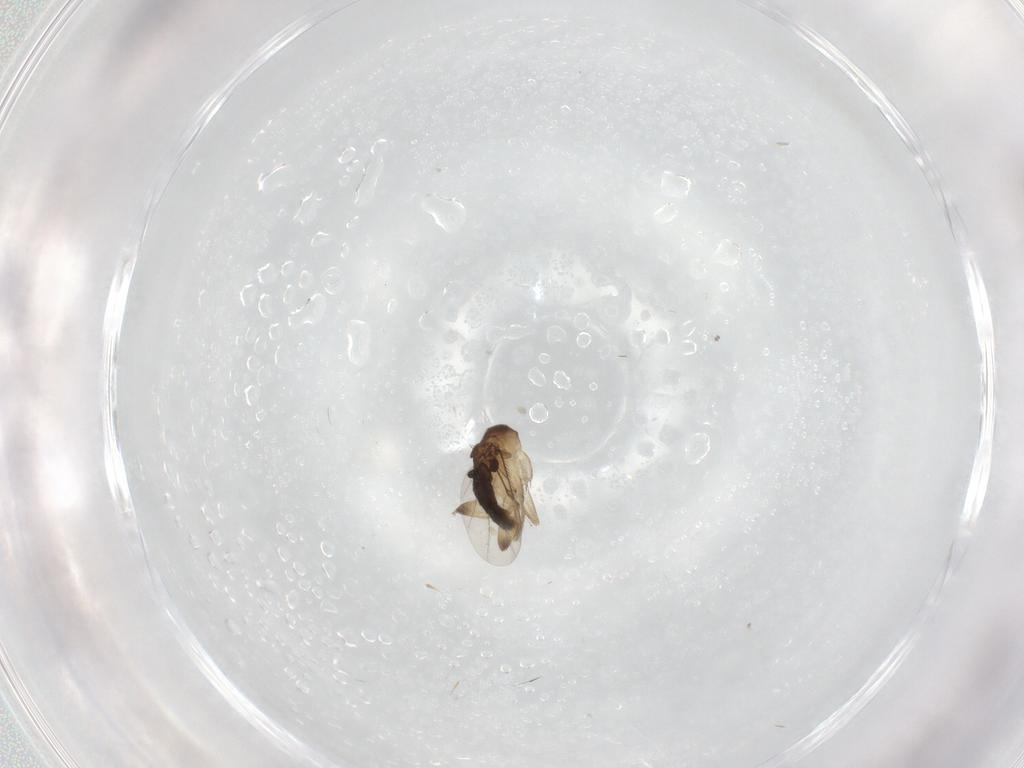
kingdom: Animalia
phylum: Arthropoda
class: Insecta
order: Diptera
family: Phoridae
